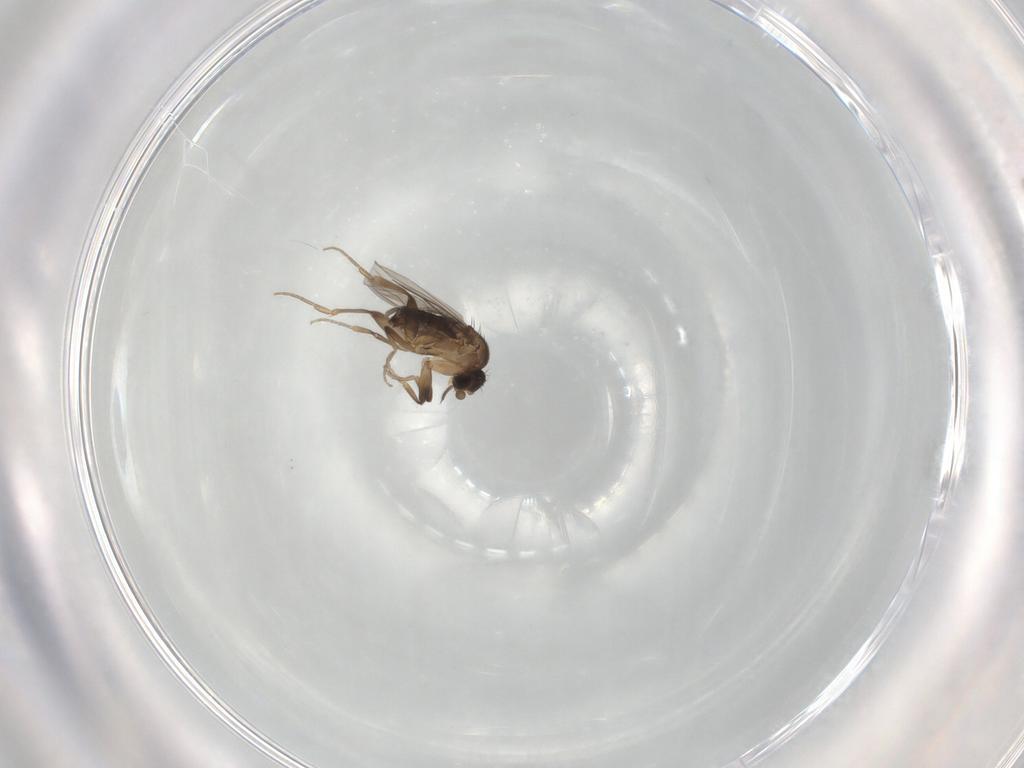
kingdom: Animalia
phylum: Arthropoda
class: Insecta
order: Diptera
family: Phoridae
